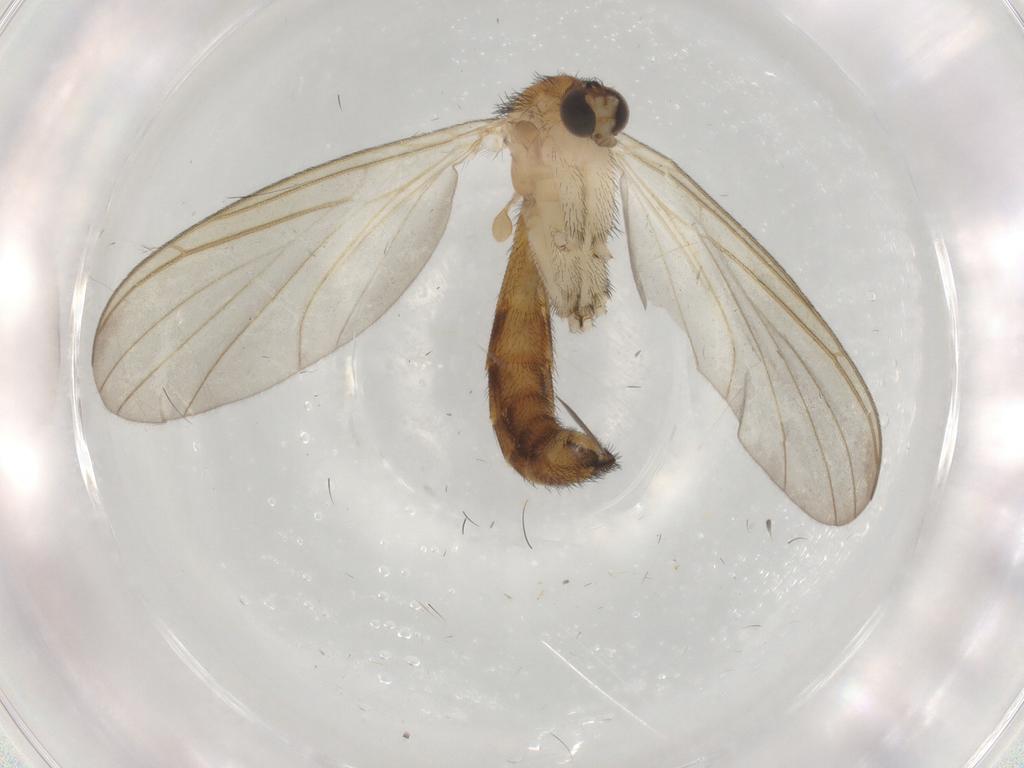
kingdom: Animalia
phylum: Arthropoda
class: Insecta
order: Diptera
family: Keroplatidae
